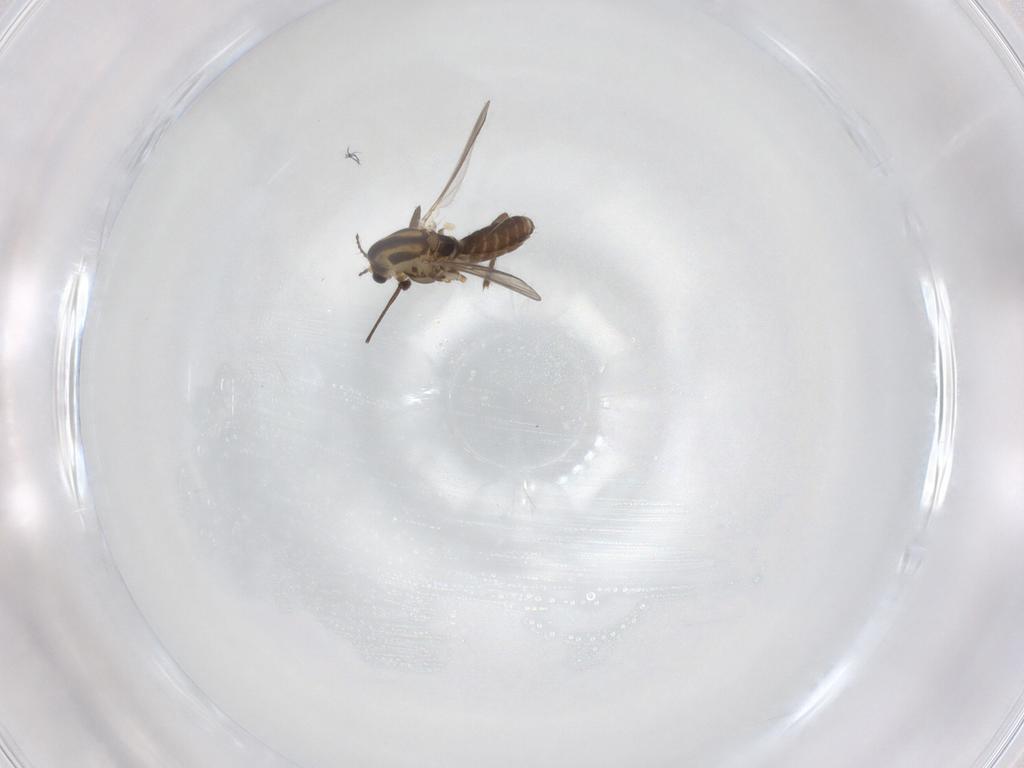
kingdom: Animalia
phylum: Arthropoda
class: Insecta
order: Diptera
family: Chironomidae
